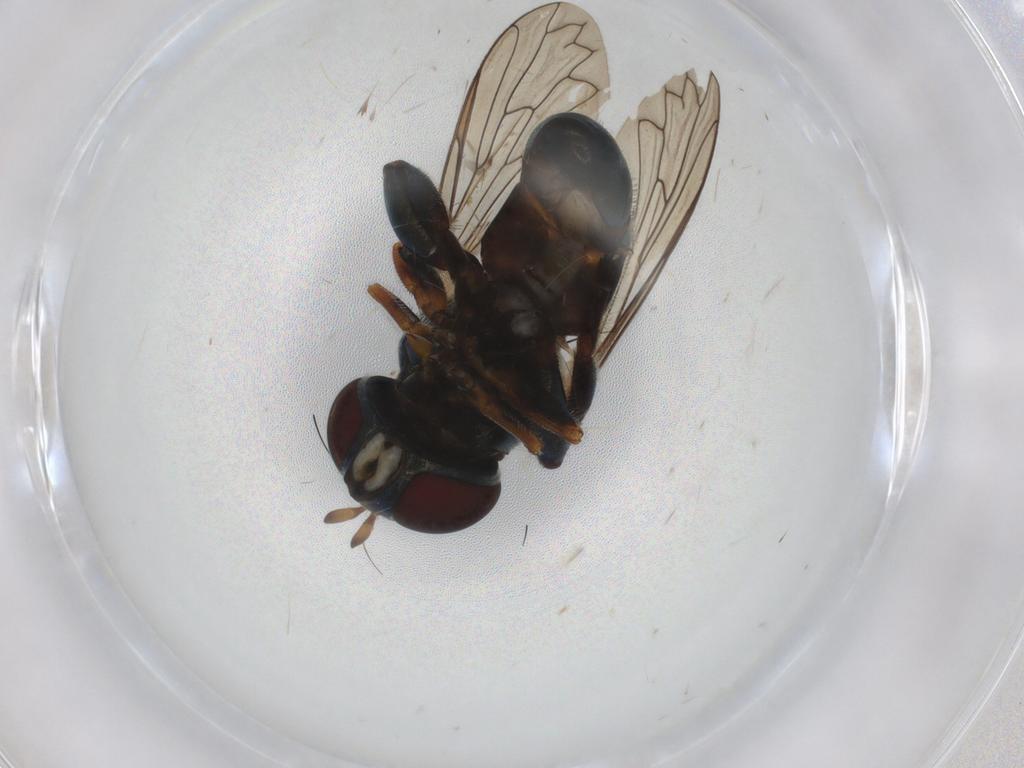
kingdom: Animalia
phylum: Arthropoda
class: Insecta
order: Diptera
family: Syrphidae
